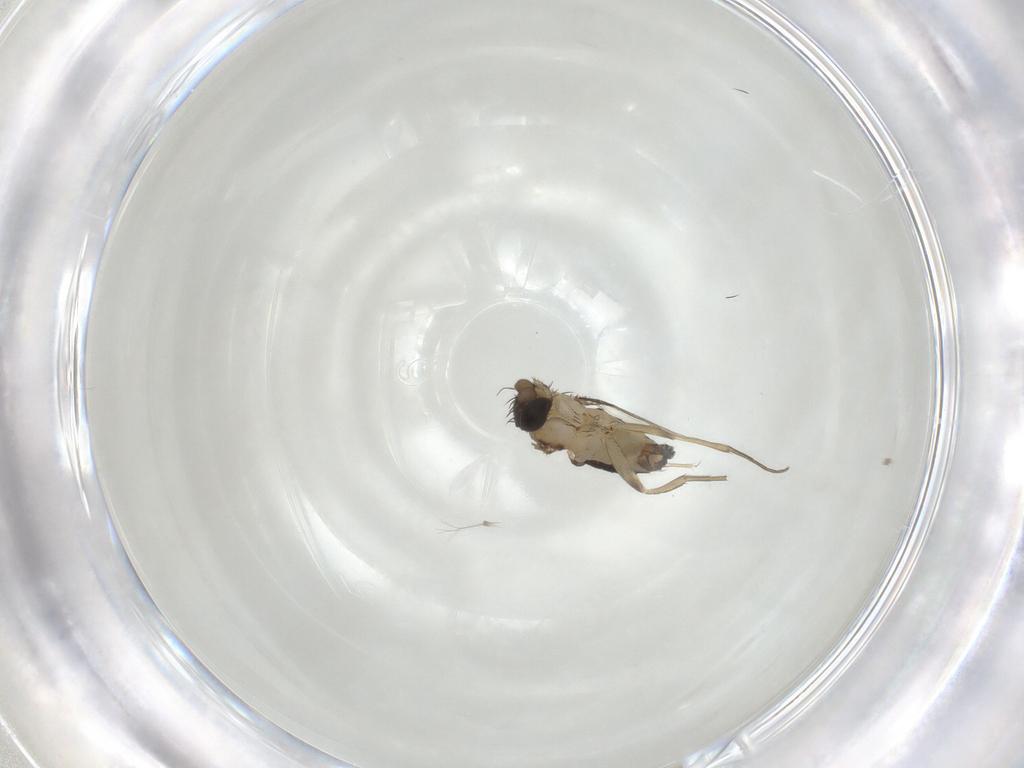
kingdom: Animalia
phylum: Arthropoda
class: Insecta
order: Diptera
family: Phoridae
